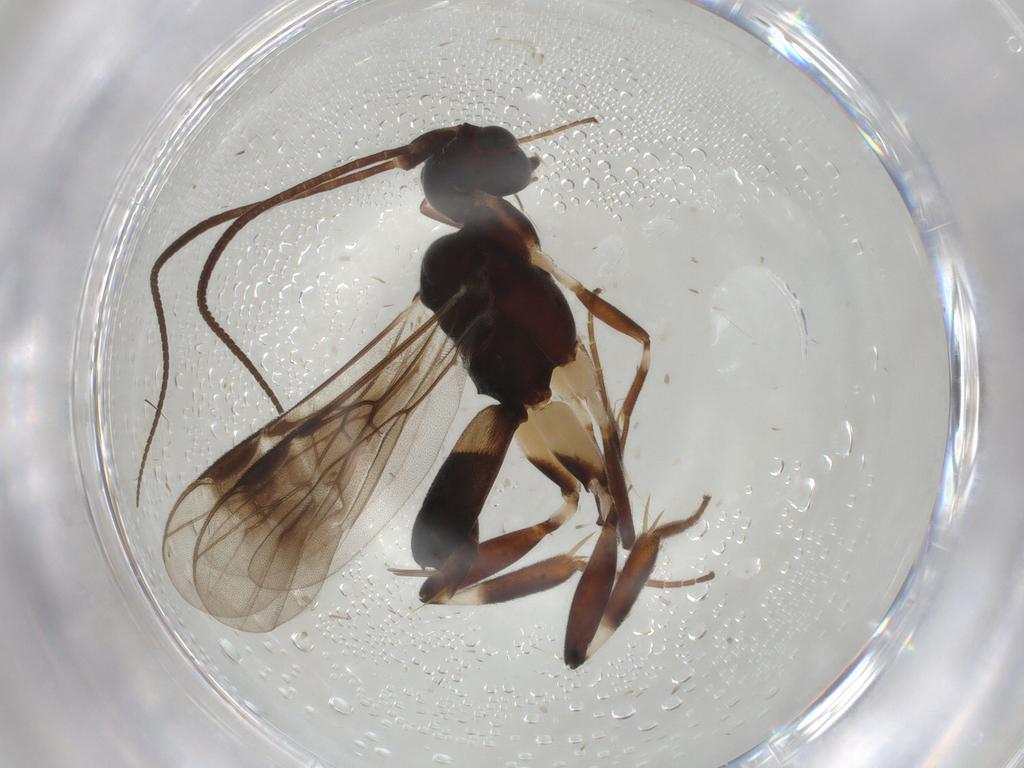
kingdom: Animalia
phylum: Arthropoda
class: Insecta
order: Hymenoptera
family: Braconidae
